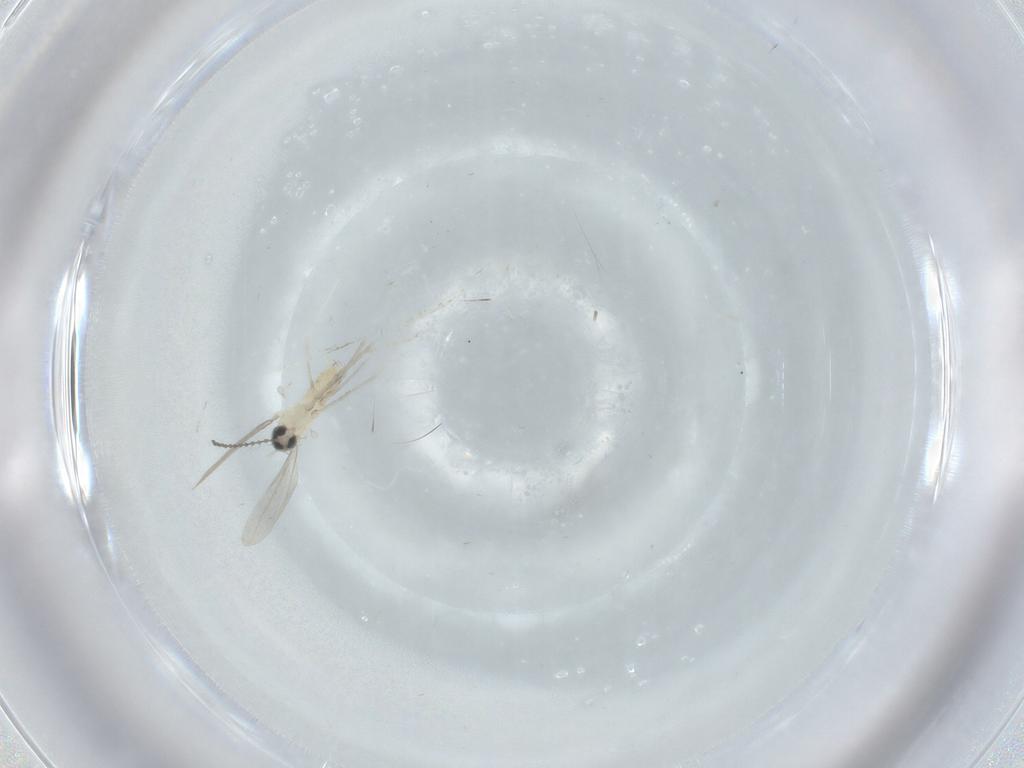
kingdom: Animalia
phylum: Arthropoda
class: Insecta
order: Diptera
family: Cecidomyiidae
